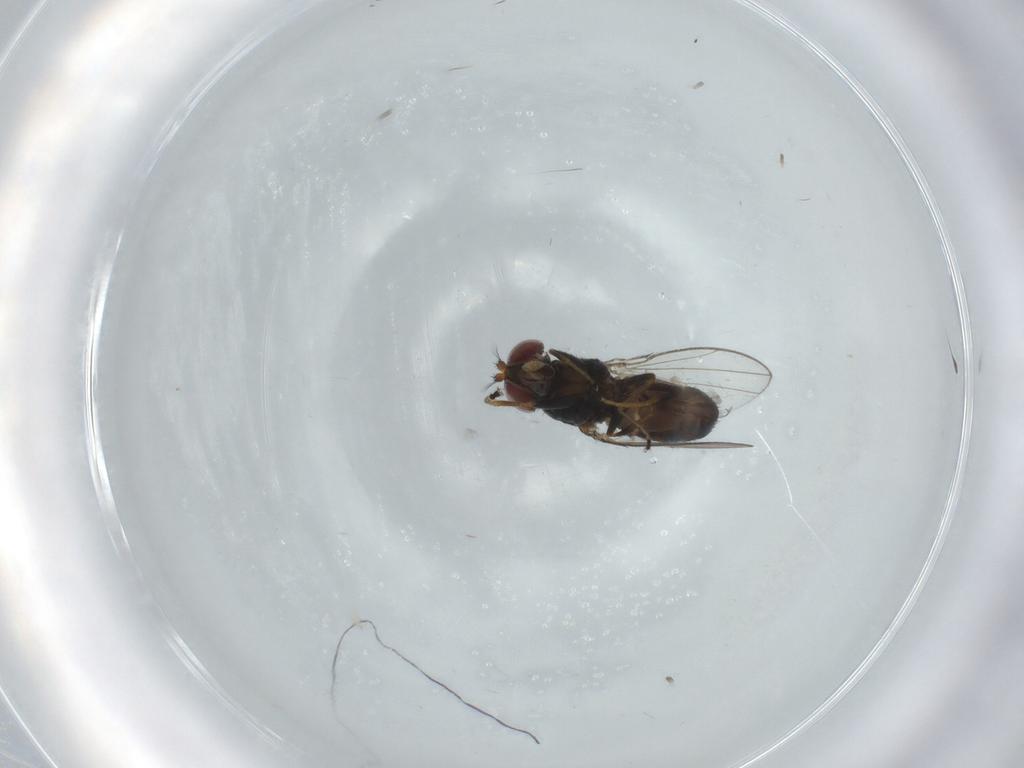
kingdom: Animalia
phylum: Arthropoda
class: Insecta
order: Diptera
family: Ephydridae
